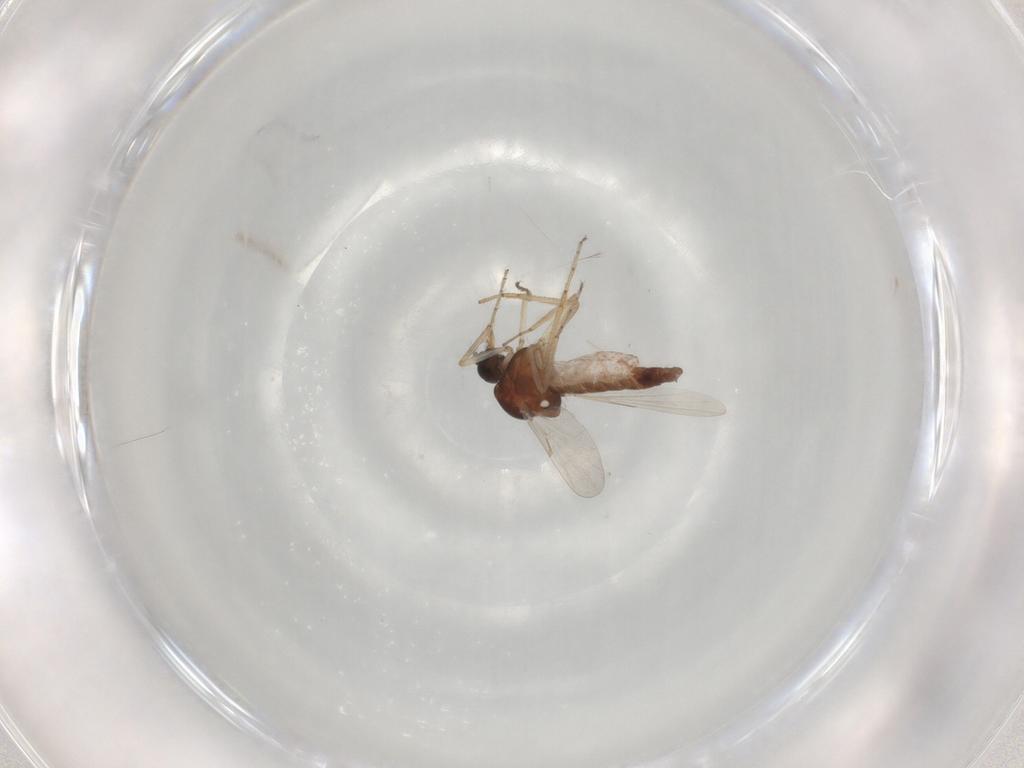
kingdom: Animalia
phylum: Arthropoda
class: Insecta
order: Diptera
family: Ceratopogonidae
